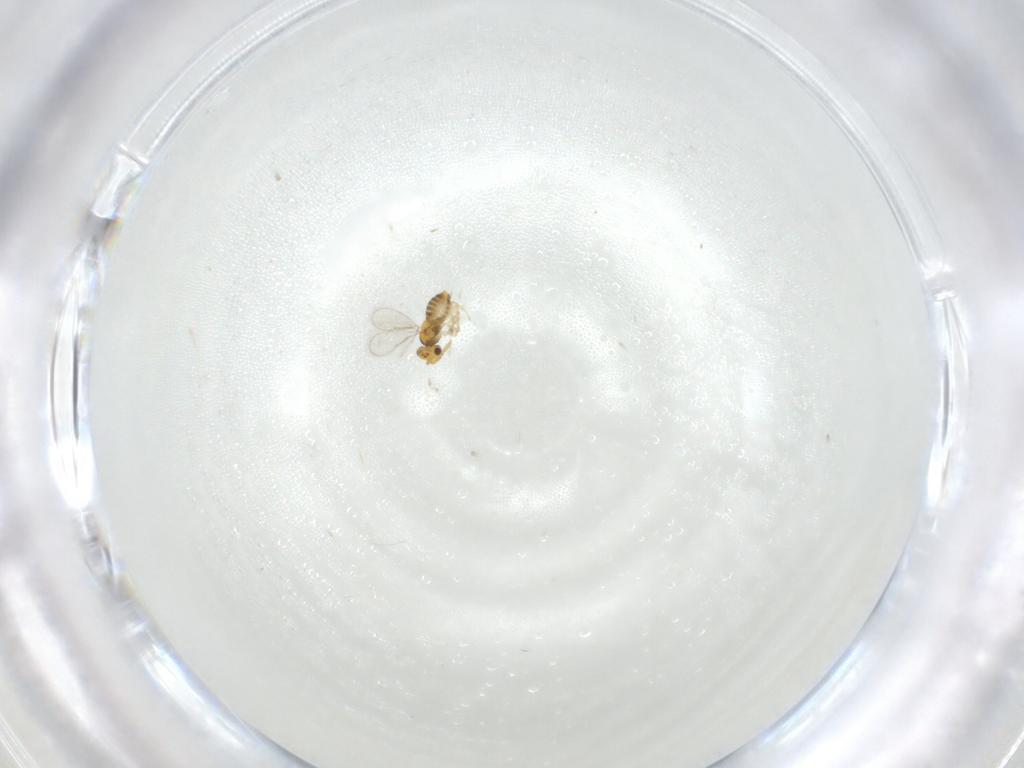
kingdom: Animalia
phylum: Arthropoda
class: Insecta
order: Hymenoptera
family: Aphelinidae
